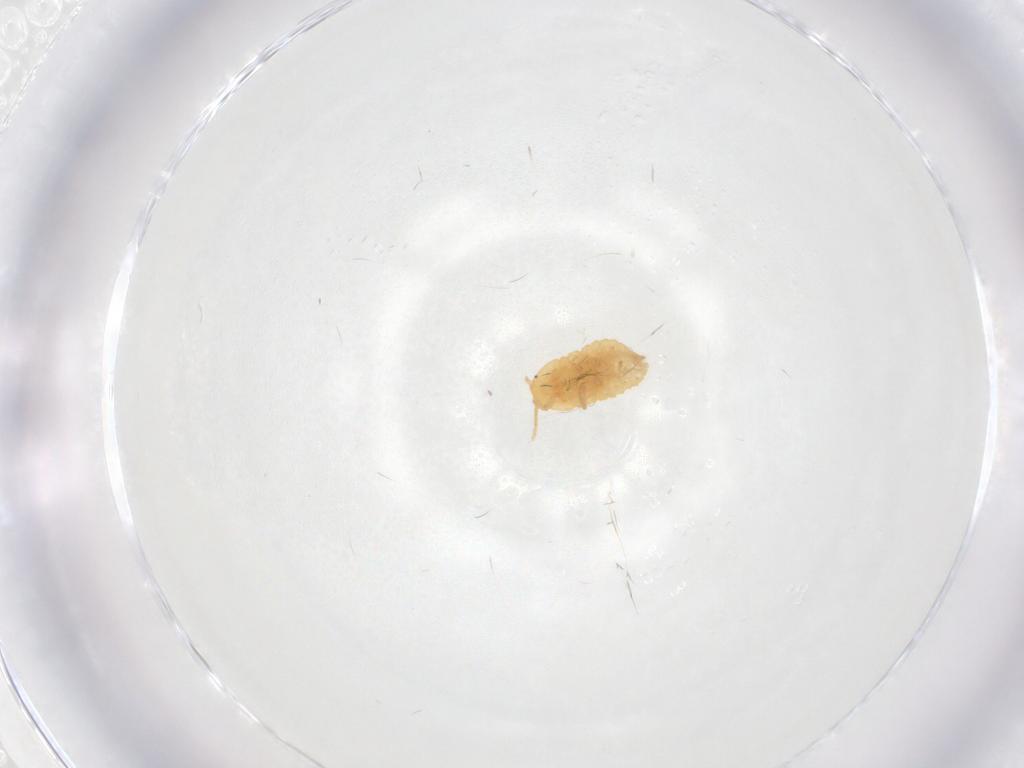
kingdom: Animalia
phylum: Arthropoda
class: Insecta
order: Hemiptera
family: Pseudococcidae
